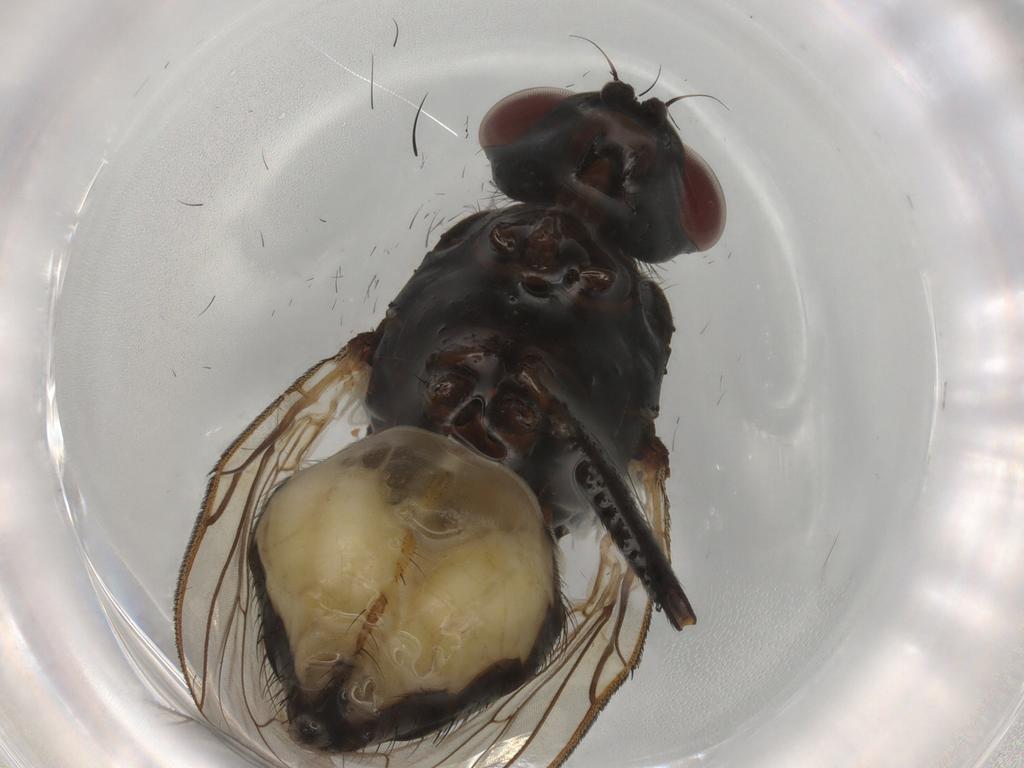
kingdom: Animalia
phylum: Arthropoda
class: Insecta
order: Diptera
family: Anthomyiidae
